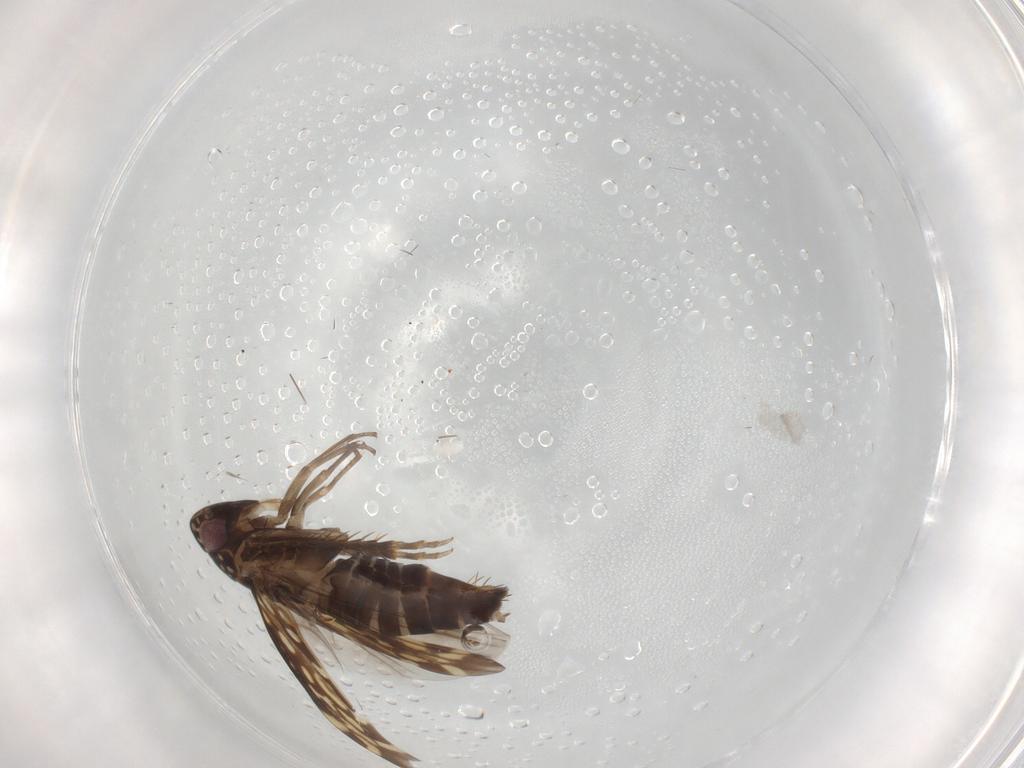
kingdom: Animalia
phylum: Arthropoda
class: Insecta
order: Hemiptera
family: Cicadellidae
